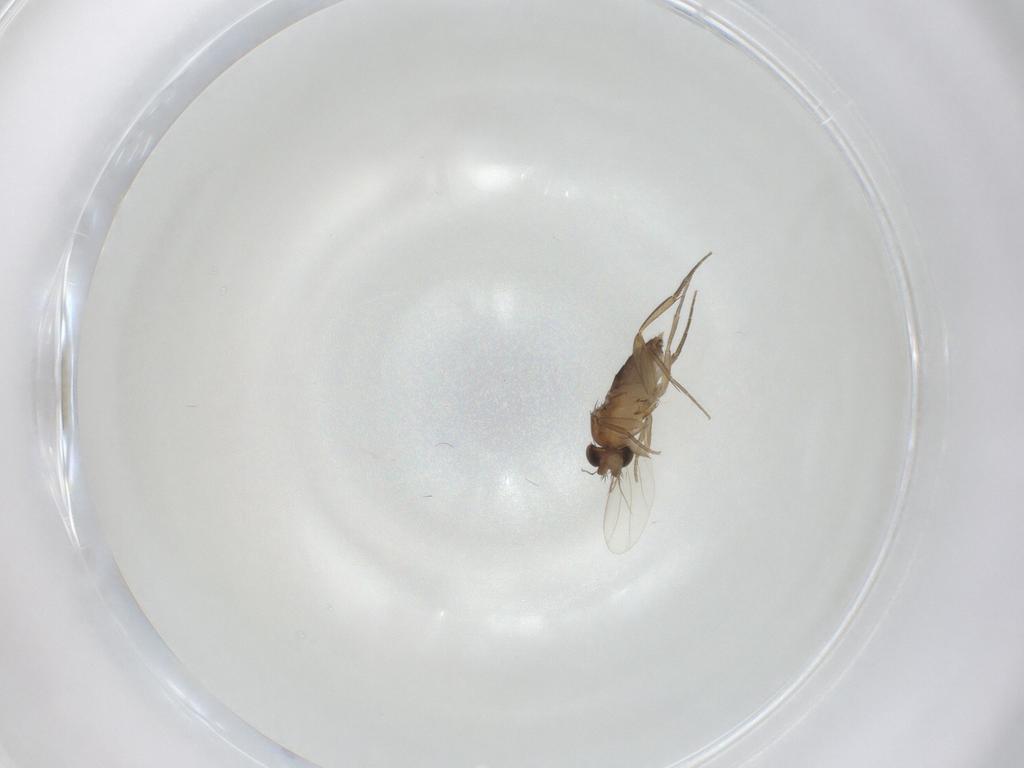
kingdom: Animalia
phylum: Arthropoda
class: Insecta
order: Diptera
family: Phoridae
